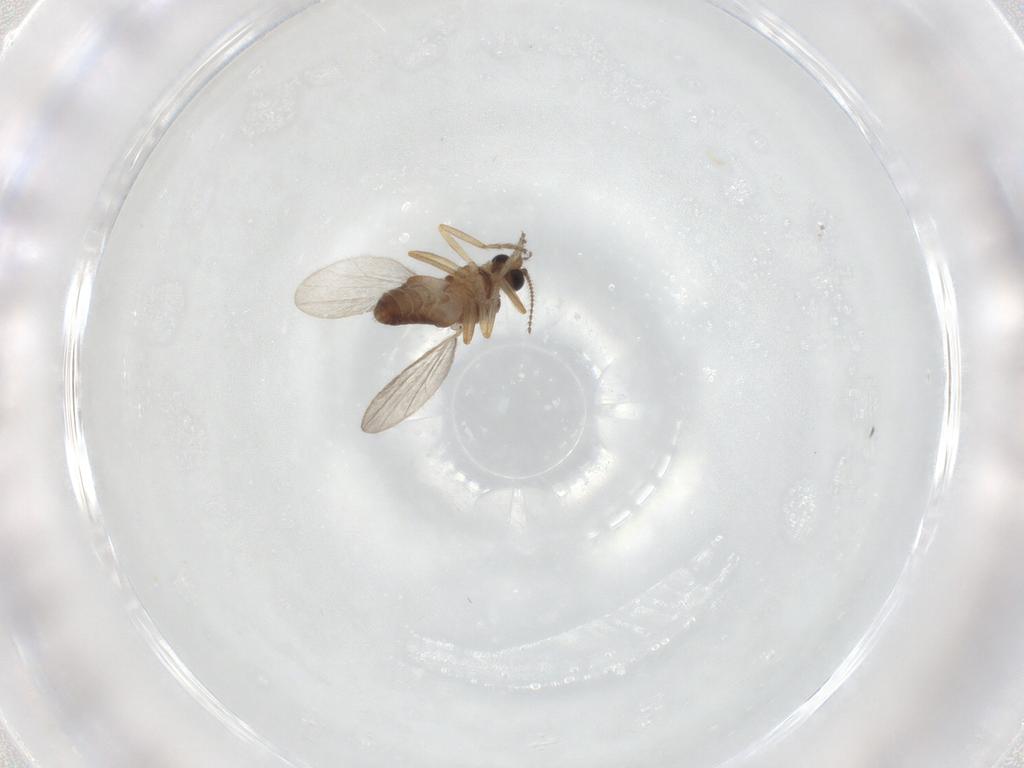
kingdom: Animalia
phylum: Arthropoda
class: Insecta
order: Diptera
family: Ceratopogonidae
